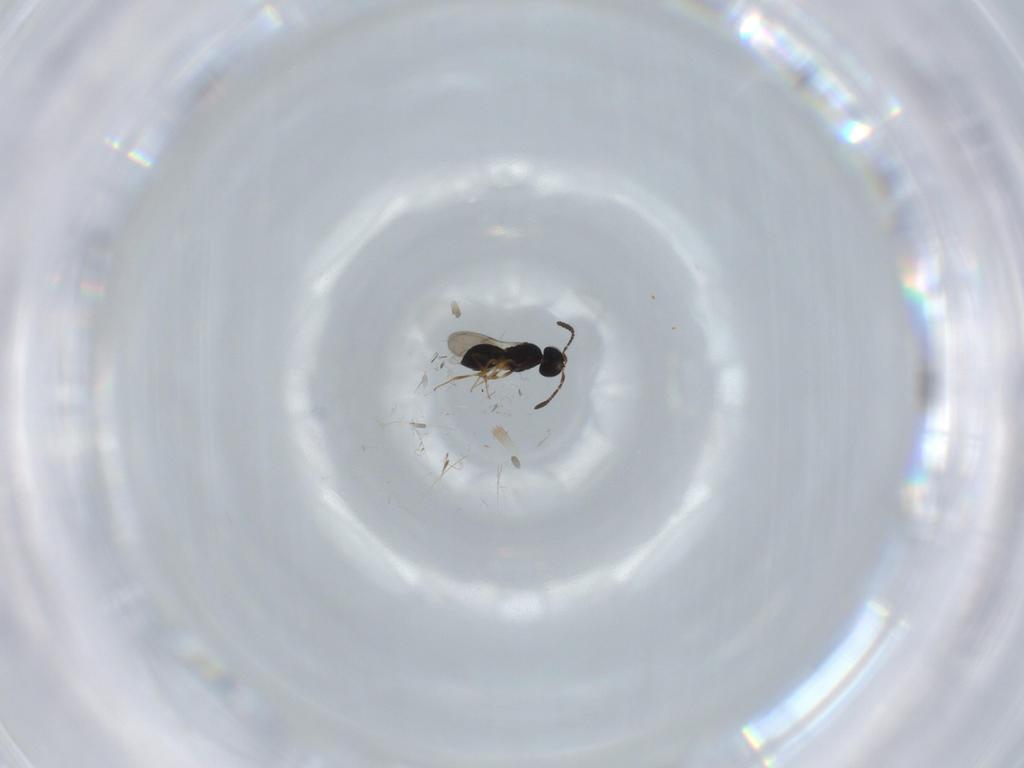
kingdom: Animalia
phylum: Arthropoda
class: Insecta
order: Hymenoptera
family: Scelionidae
